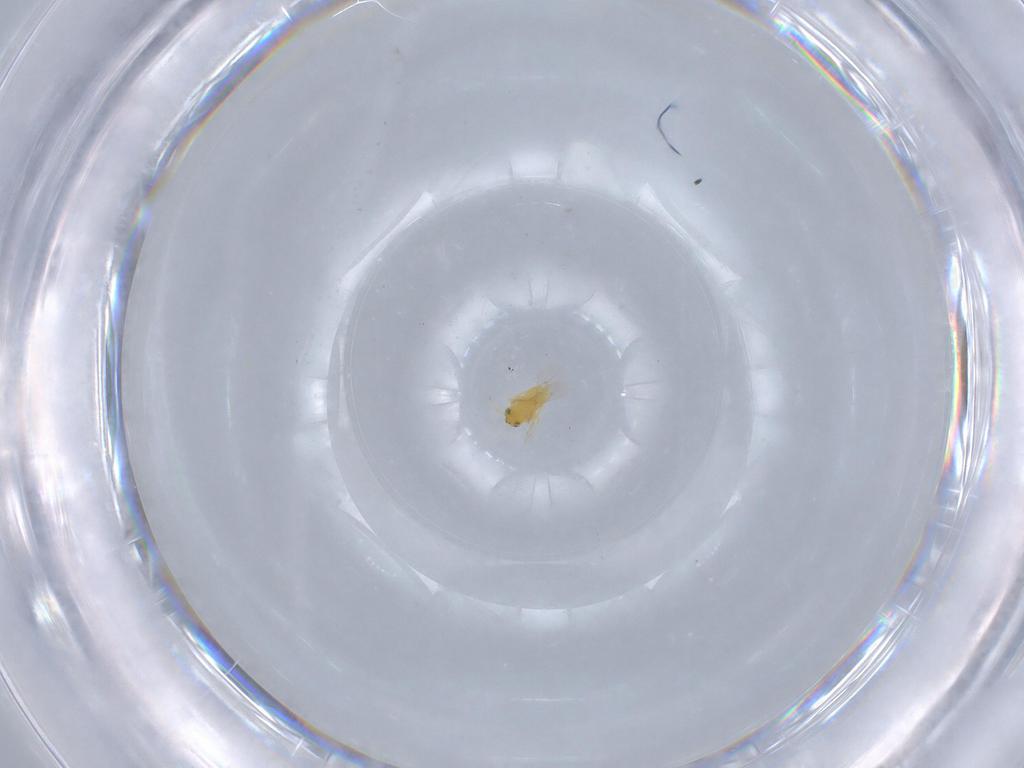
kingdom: Animalia
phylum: Arthropoda
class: Insecta
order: Hymenoptera
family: Aphelinidae
